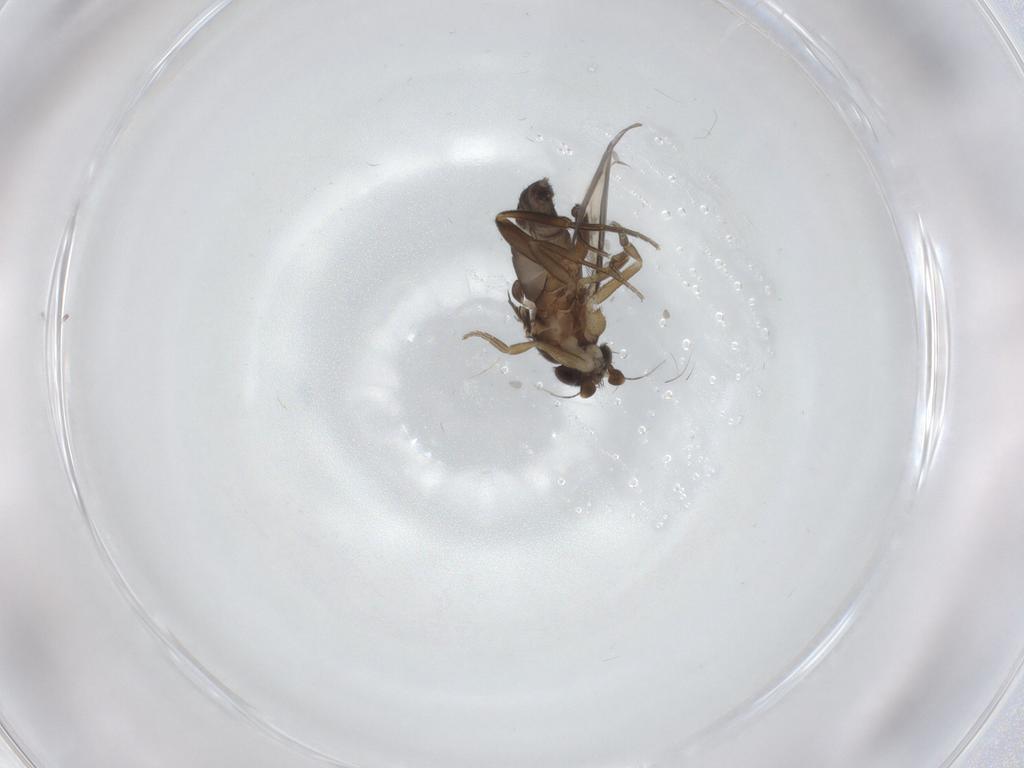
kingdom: Animalia
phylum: Arthropoda
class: Insecta
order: Diptera
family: Phoridae
